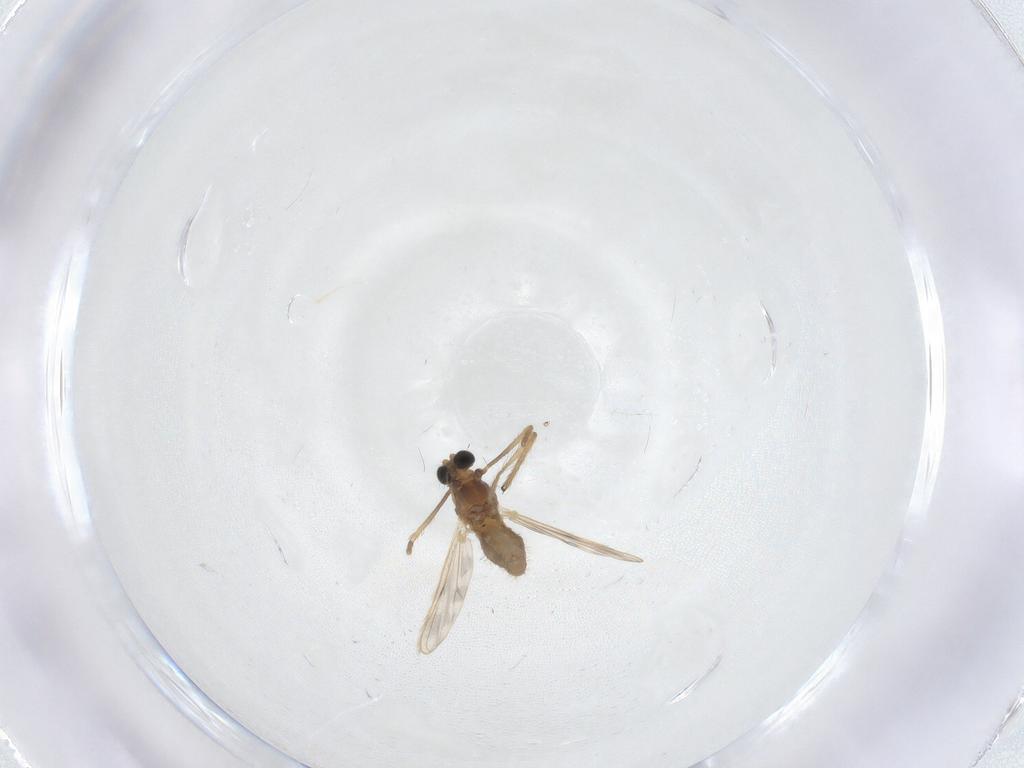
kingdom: Animalia
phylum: Arthropoda
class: Insecta
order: Diptera
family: Chironomidae
